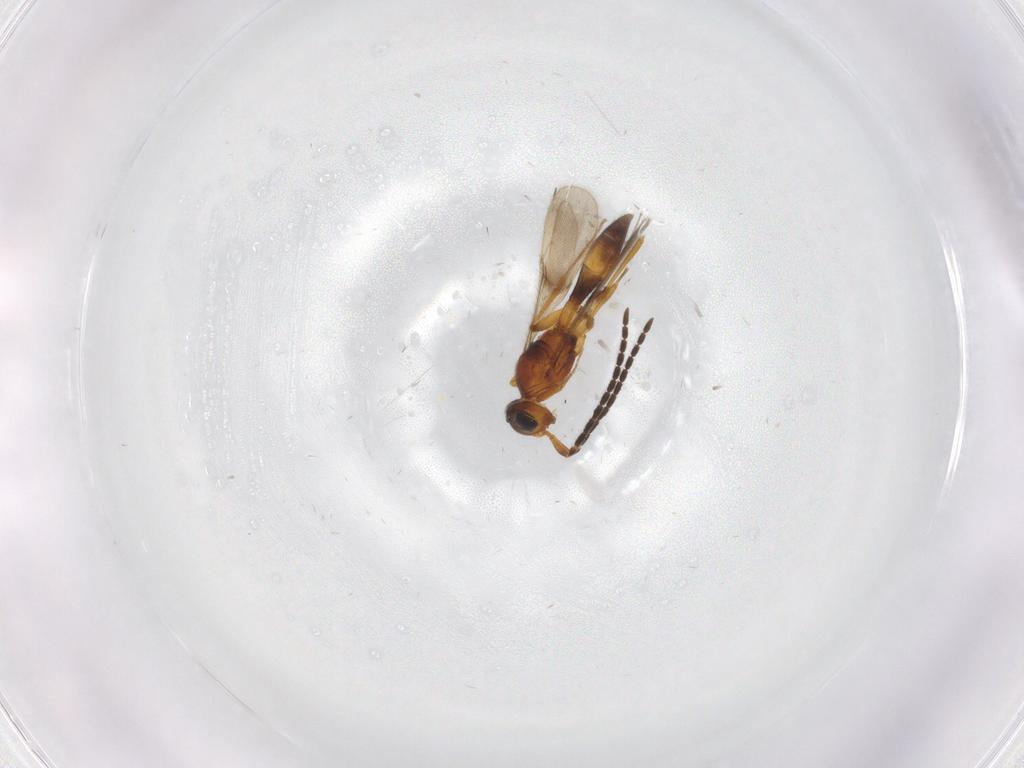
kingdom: Animalia
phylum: Arthropoda
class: Insecta
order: Hymenoptera
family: Scelionidae
